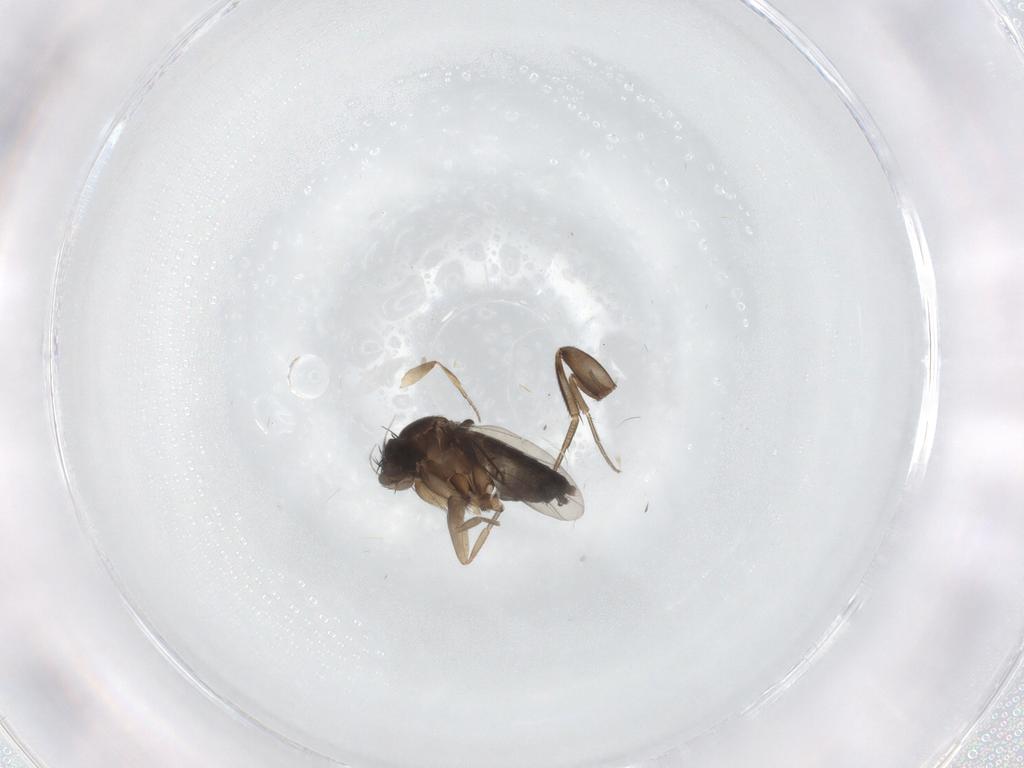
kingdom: Animalia
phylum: Arthropoda
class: Insecta
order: Diptera
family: Phoridae
